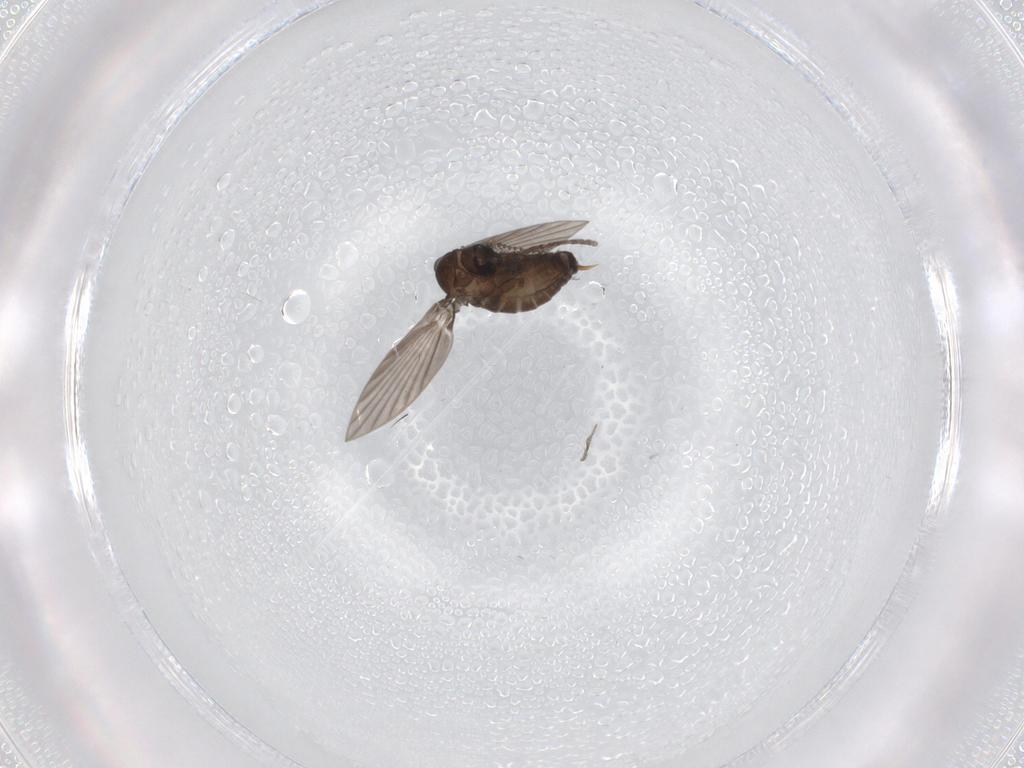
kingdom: Animalia
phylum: Arthropoda
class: Insecta
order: Diptera
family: Psychodidae
